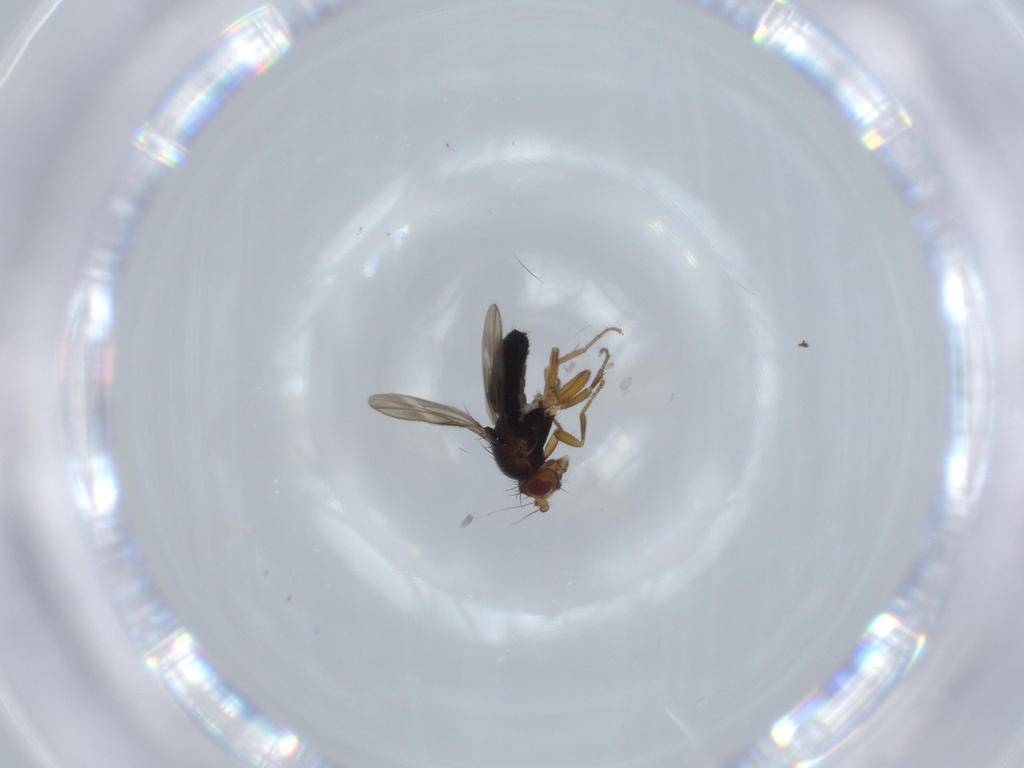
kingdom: Animalia
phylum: Arthropoda
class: Insecta
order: Diptera
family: Sphaeroceridae
